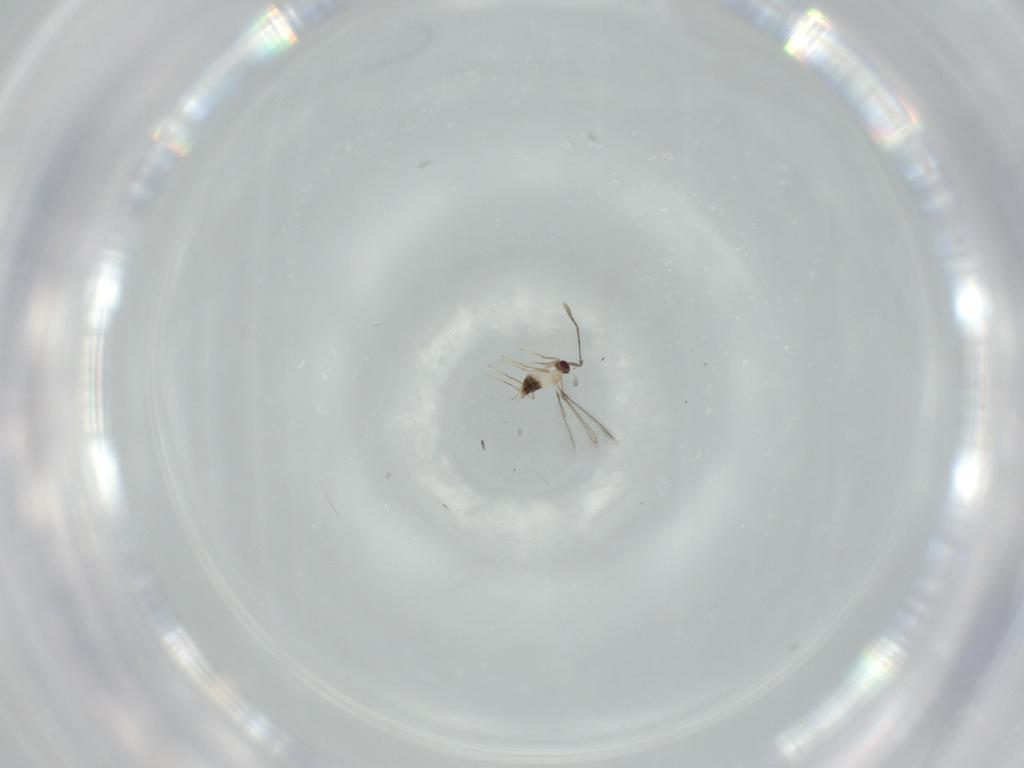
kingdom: Animalia
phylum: Arthropoda
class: Insecta
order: Hymenoptera
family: Mymaridae
